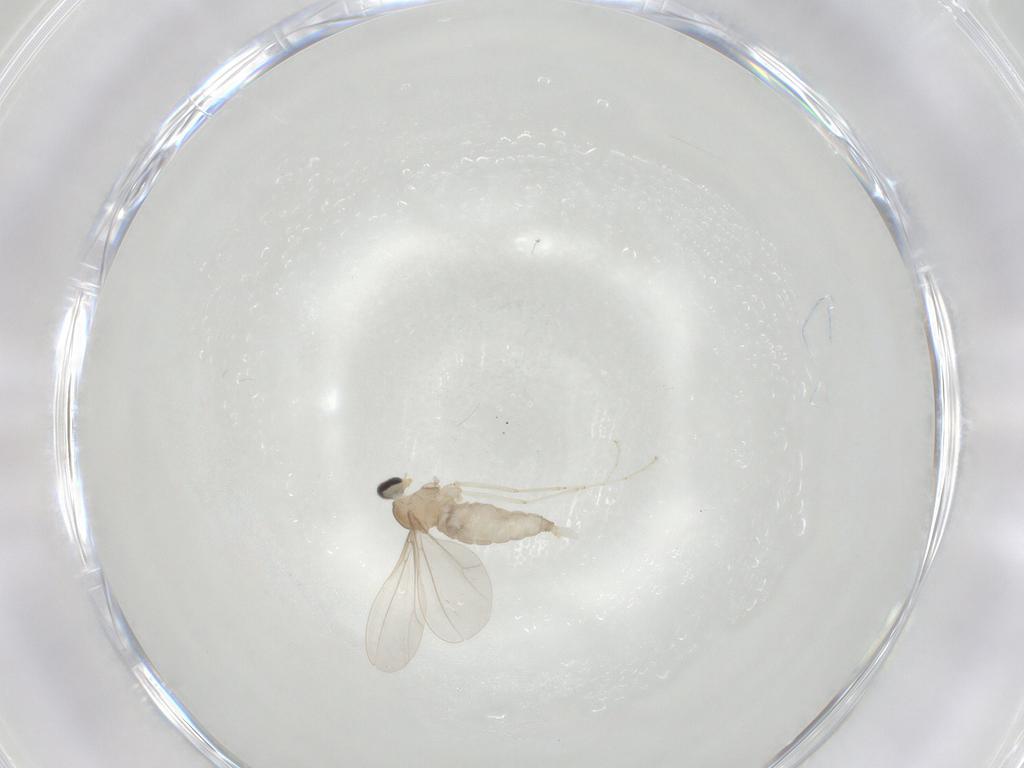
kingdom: Animalia
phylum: Arthropoda
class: Insecta
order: Diptera
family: Cecidomyiidae
